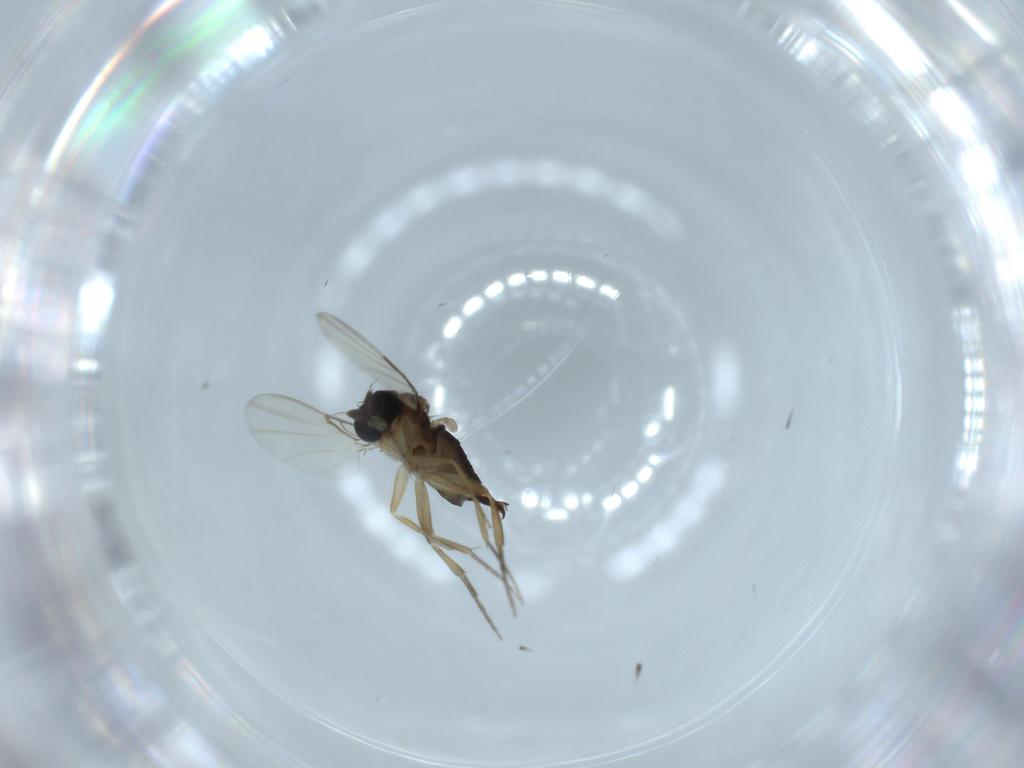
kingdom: Animalia
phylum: Arthropoda
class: Insecta
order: Diptera
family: Phoridae
